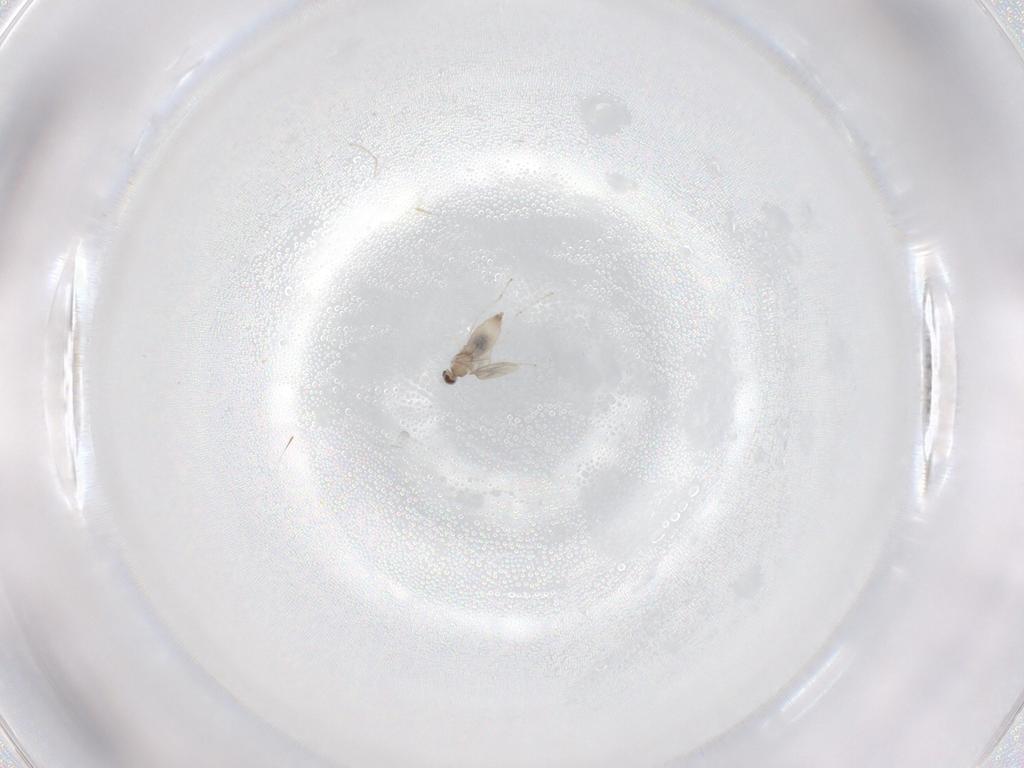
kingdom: Animalia
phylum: Arthropoda
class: Insecta
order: Diptera
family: Cecidomyiidae
